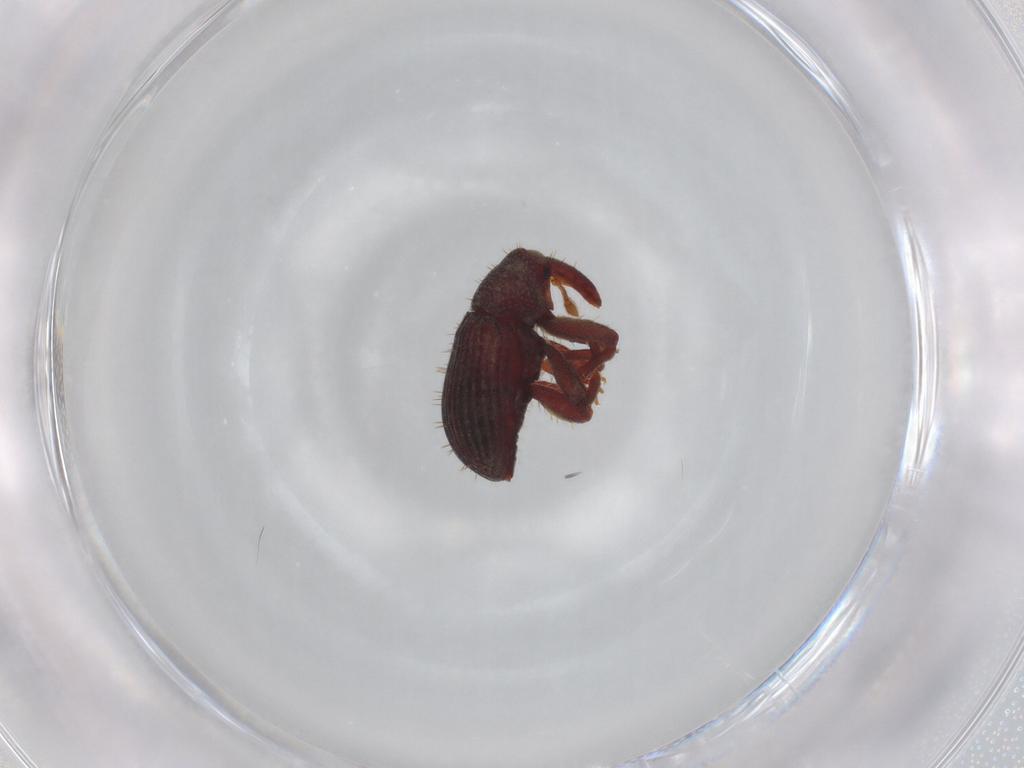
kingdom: Animalia
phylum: Arthropoda
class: Insecta
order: Coleoptera
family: Curculionidae
